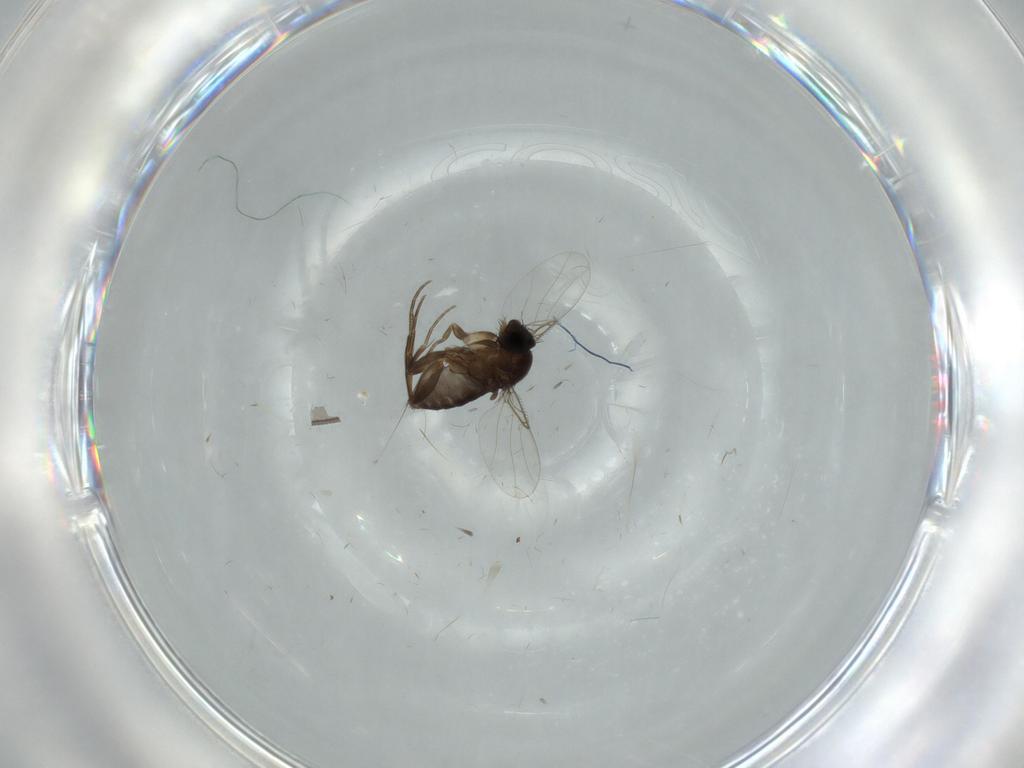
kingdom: Animalia
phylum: Arthropoda
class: Insecta
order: Diptera
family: Phoridae
